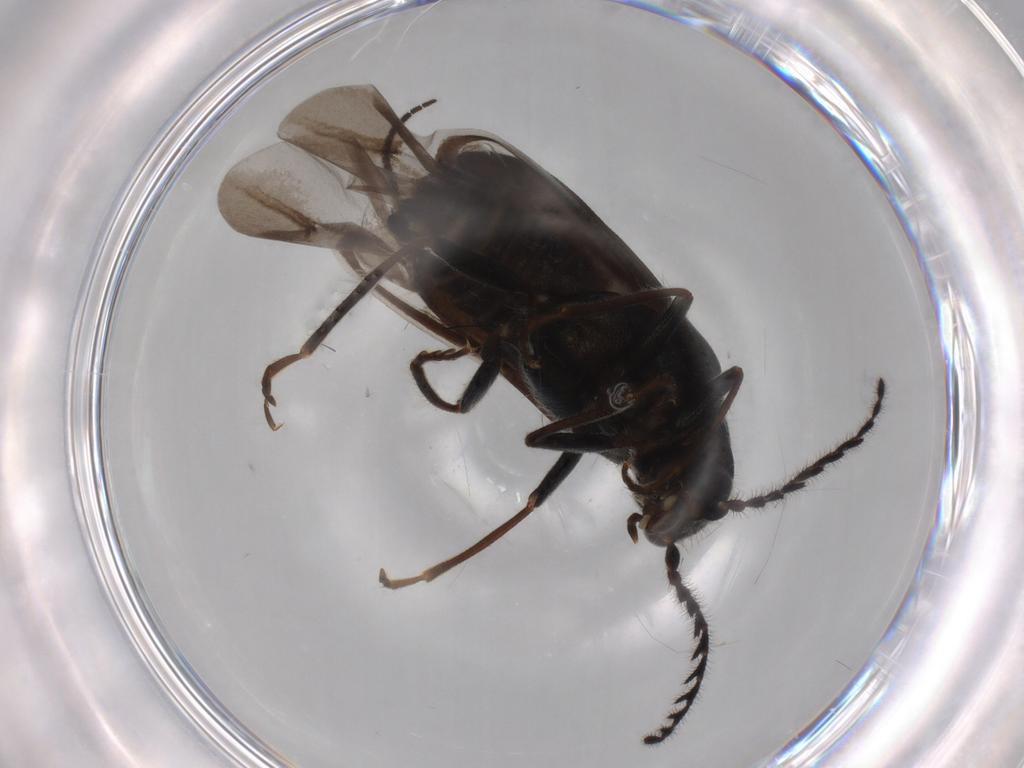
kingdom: Animalia
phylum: Arthropoda
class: Insecta
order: Coleoptera
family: Melyridae
